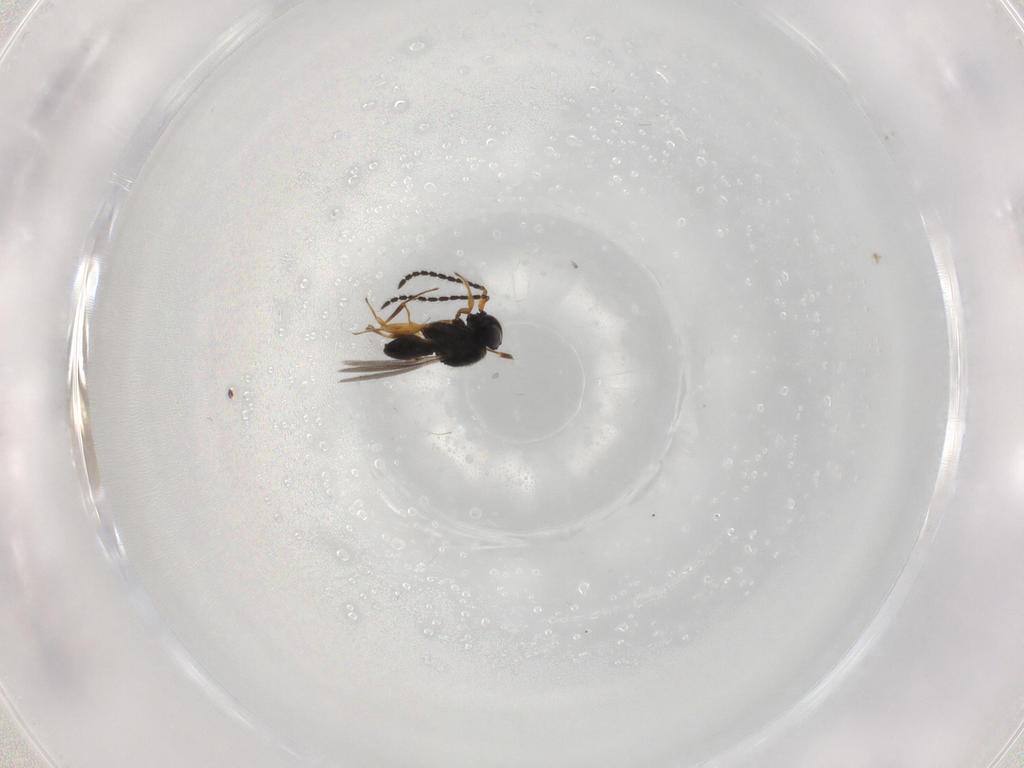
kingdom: Animalia
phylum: Arthropoda
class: Insecta
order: Hymenoptera
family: Scelionidae
